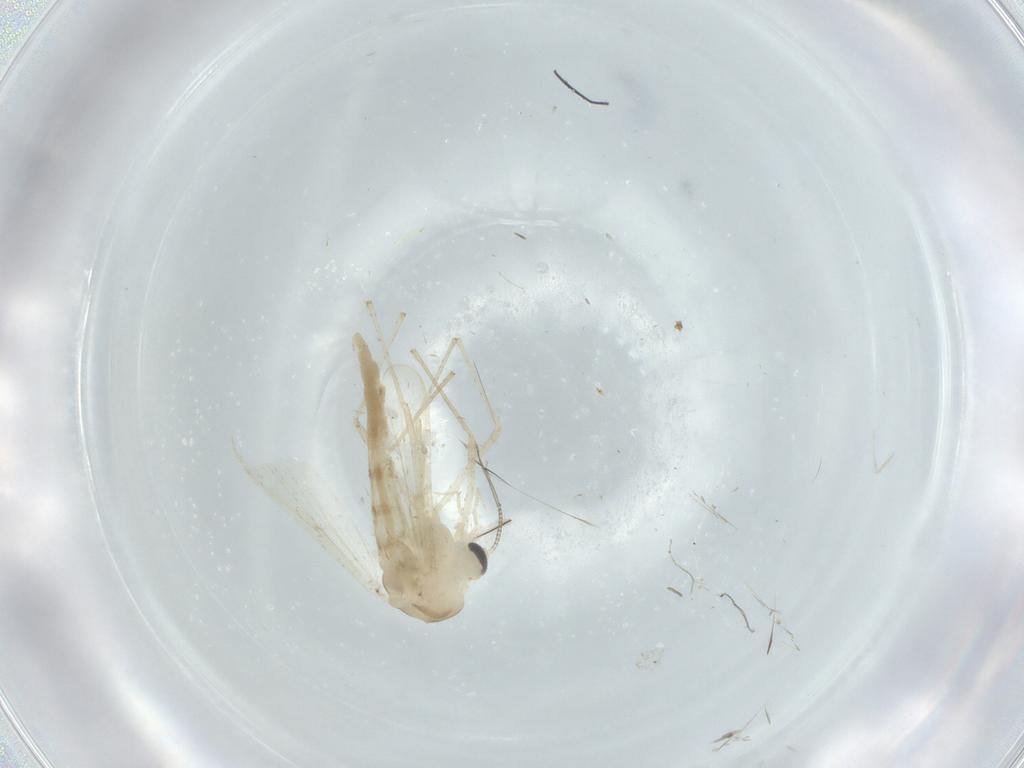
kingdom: Animalia
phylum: Arthropoda
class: Insecta
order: Diptera
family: Chironomidae
